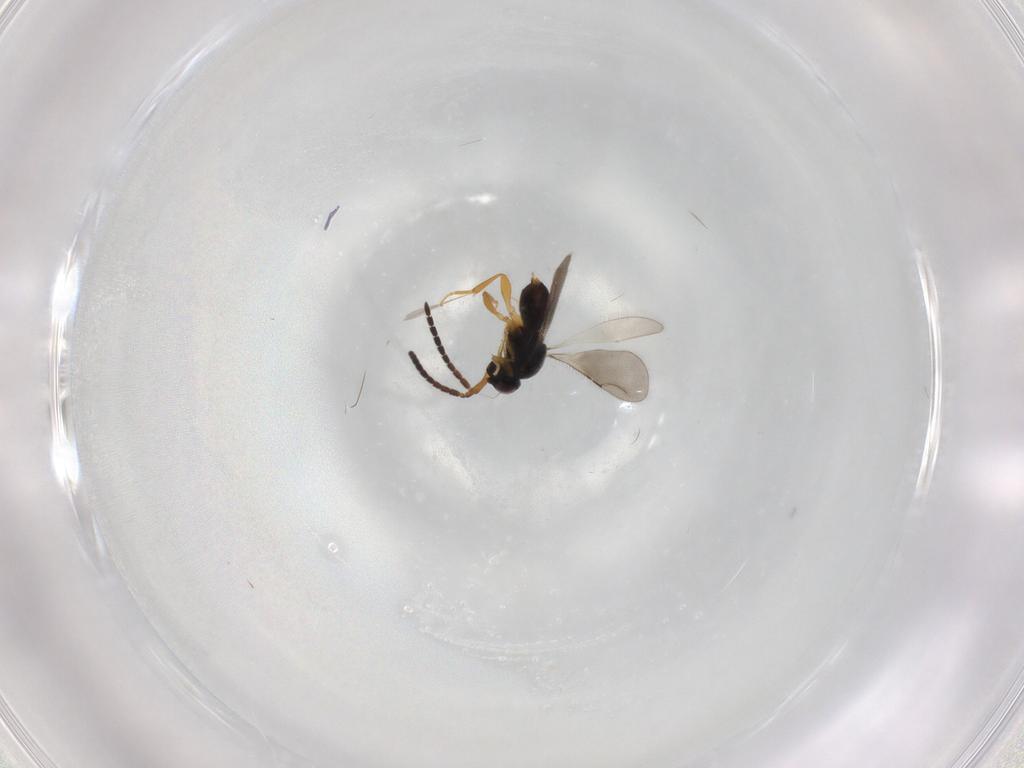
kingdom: Animalia
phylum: Arthropoda
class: Insecta
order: Hymenoptera
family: Ceraphronidae
